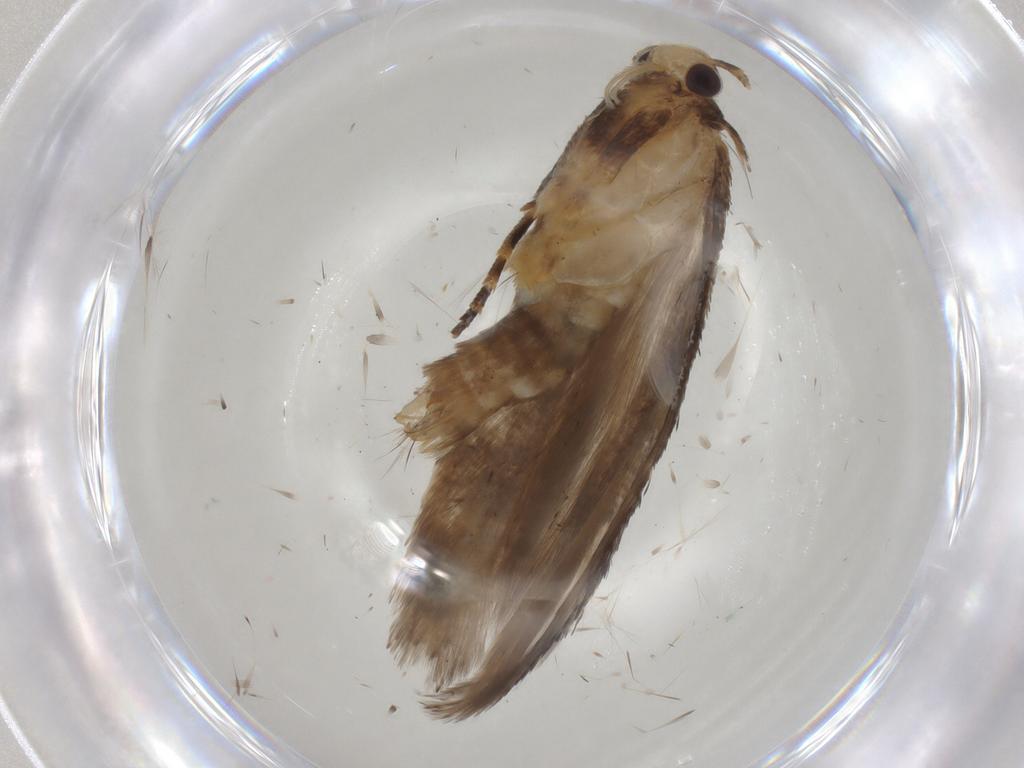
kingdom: Animalia
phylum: Arthropoda
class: Insecta
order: Lepidoptera
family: Gelechiidae
